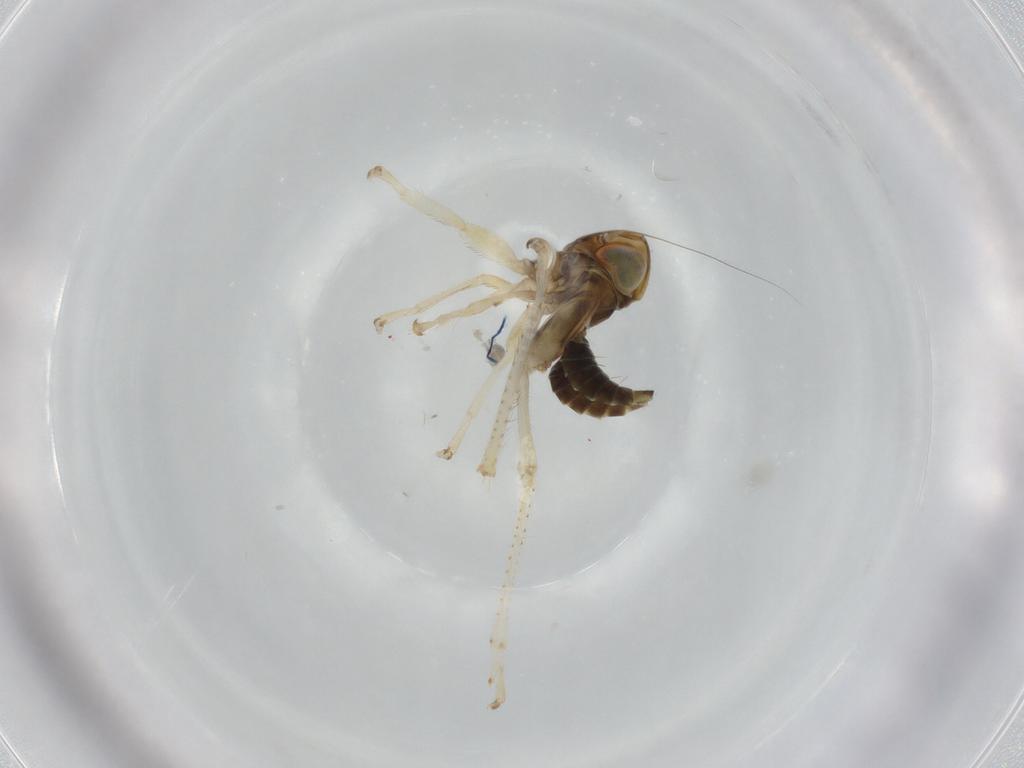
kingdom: Animalia
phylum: Arthropoda
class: Insecta
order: Hemiptera
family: Cicadellidae
